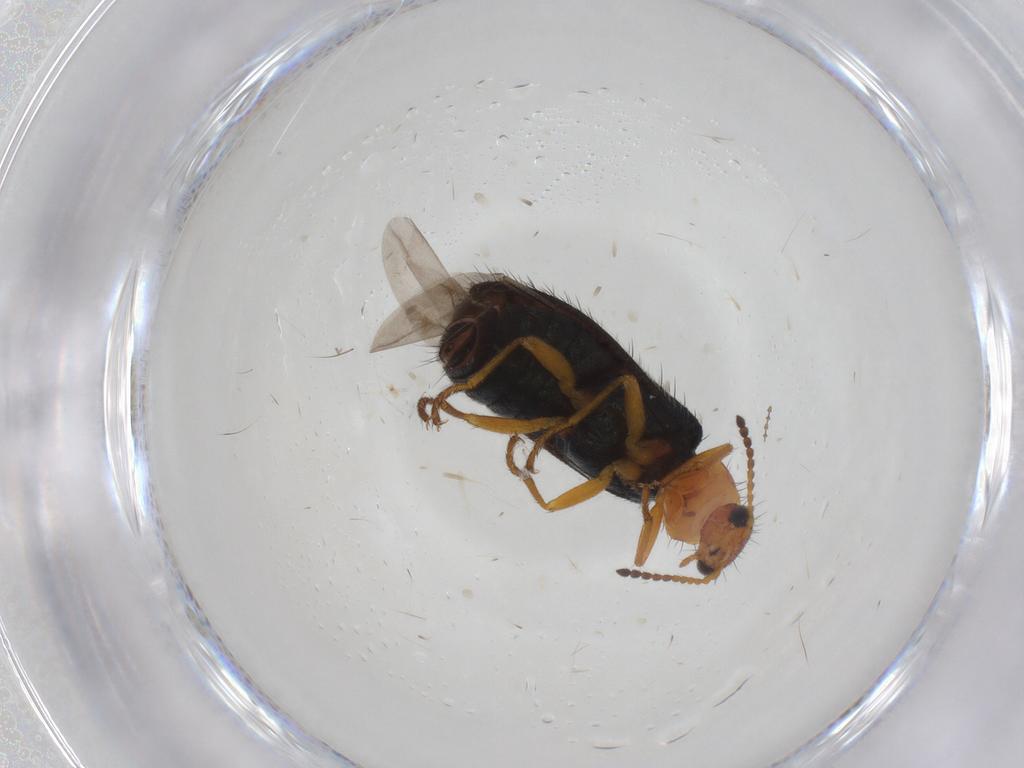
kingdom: Animalia
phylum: Arthropoda
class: Insecta
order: Coleoptera
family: Melyridae
